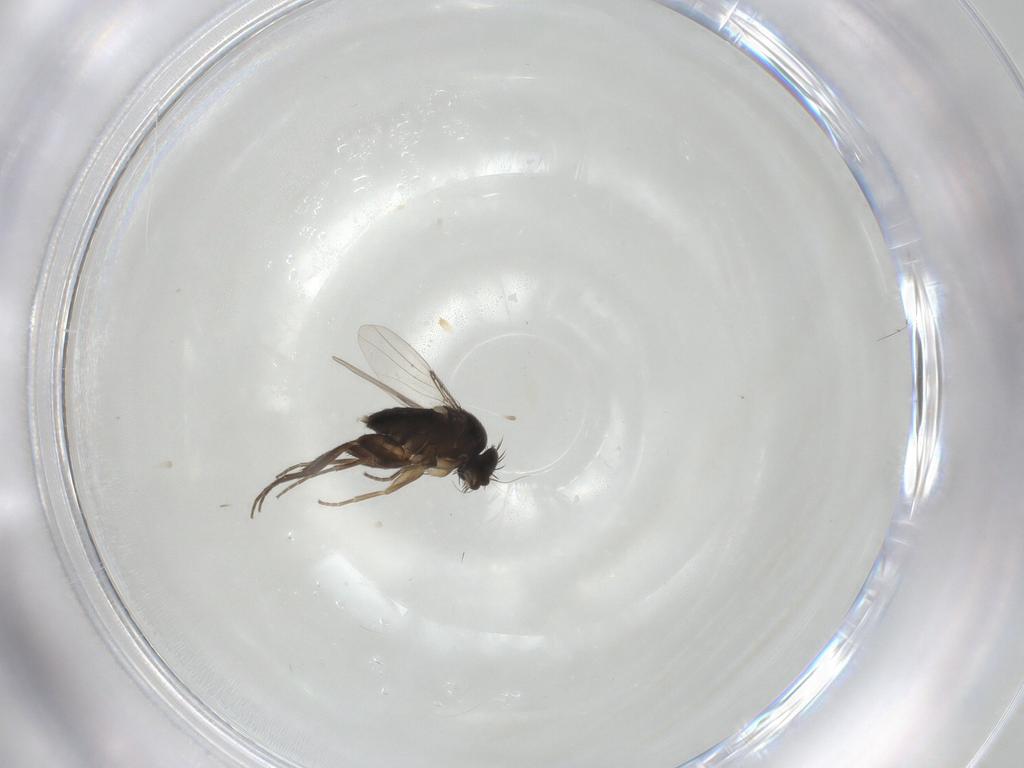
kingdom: Animalia
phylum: Arthropoda
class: Insecta
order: Diptera
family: Phoridae
